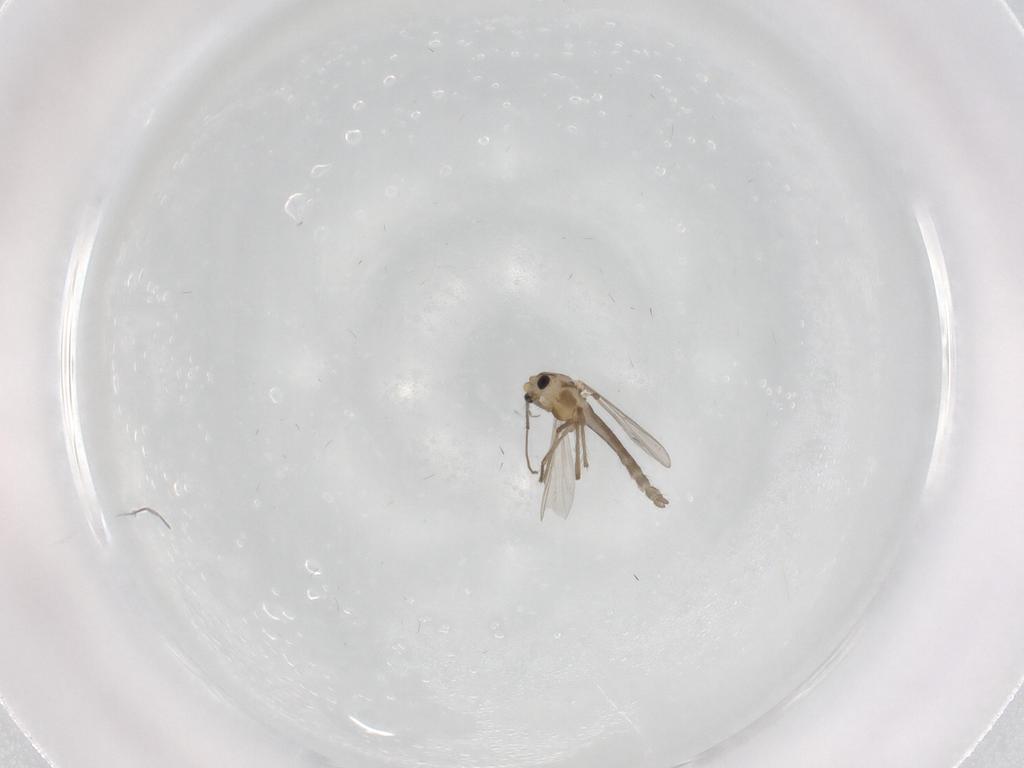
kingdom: Animalia
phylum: Arthropoda
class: Insecta
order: Diptera
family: Chironomidae
